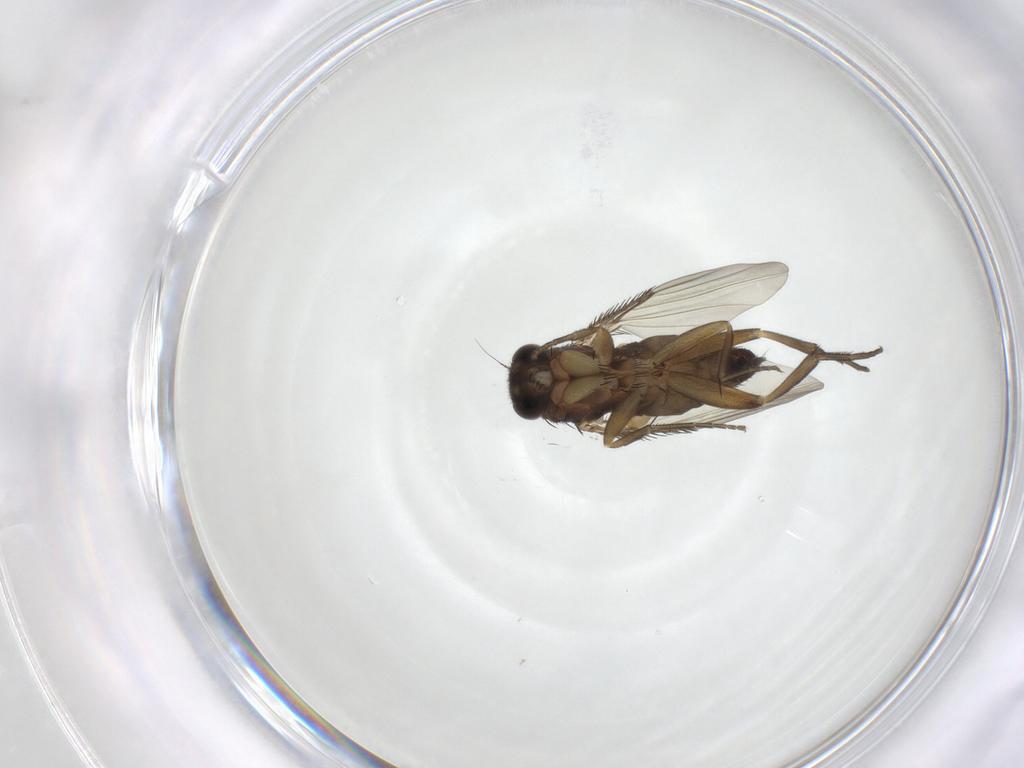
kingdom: Animalia
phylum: Arthropoda
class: Insecta
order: Diptera
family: Phoridae
